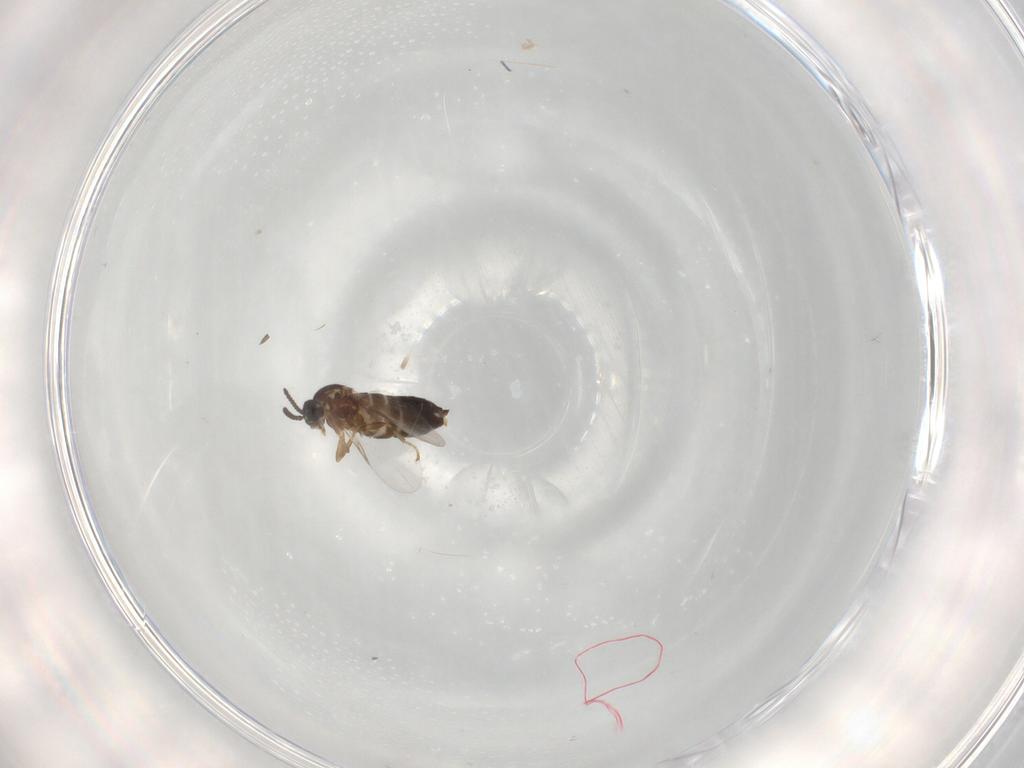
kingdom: Animalia
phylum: Arthropoda
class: Insecta
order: Diptera
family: Scatopsidae
